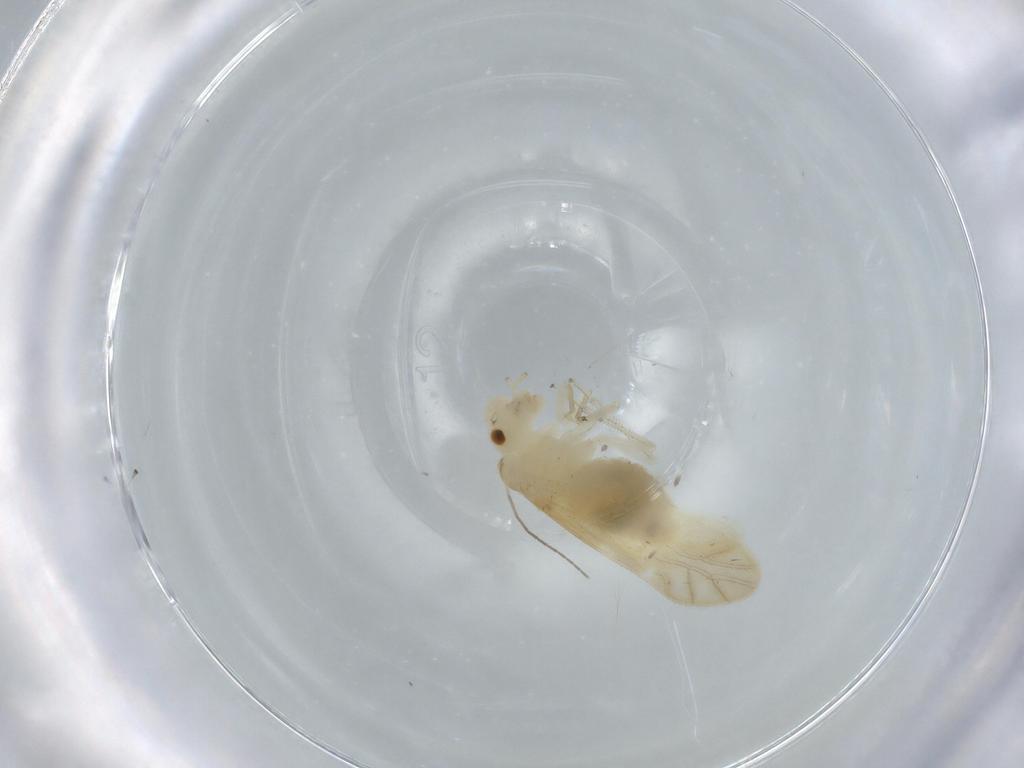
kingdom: Animalia
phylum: Arthropoda
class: Insecta
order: Psocodea
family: Caeciliusidae
